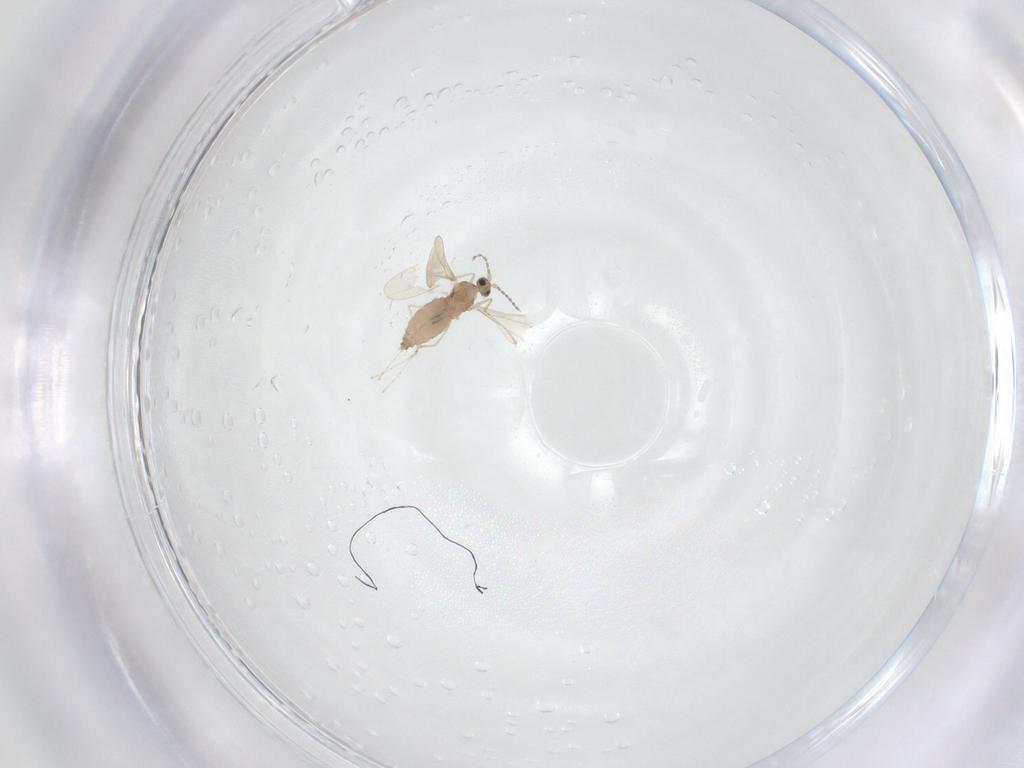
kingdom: Animalia
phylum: Arthropoda
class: Insecta
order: Diptera
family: Cecidomyiidae
